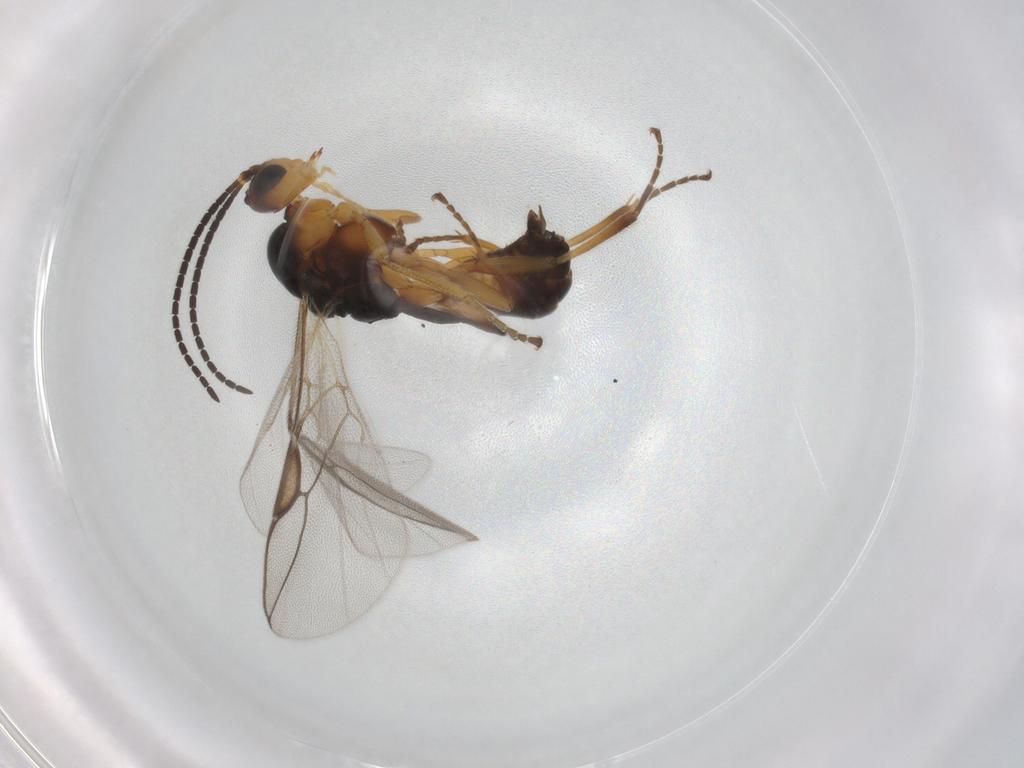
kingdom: Animalia
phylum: Arthropoda
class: Insecta
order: Hymenoptera
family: Braconidae
